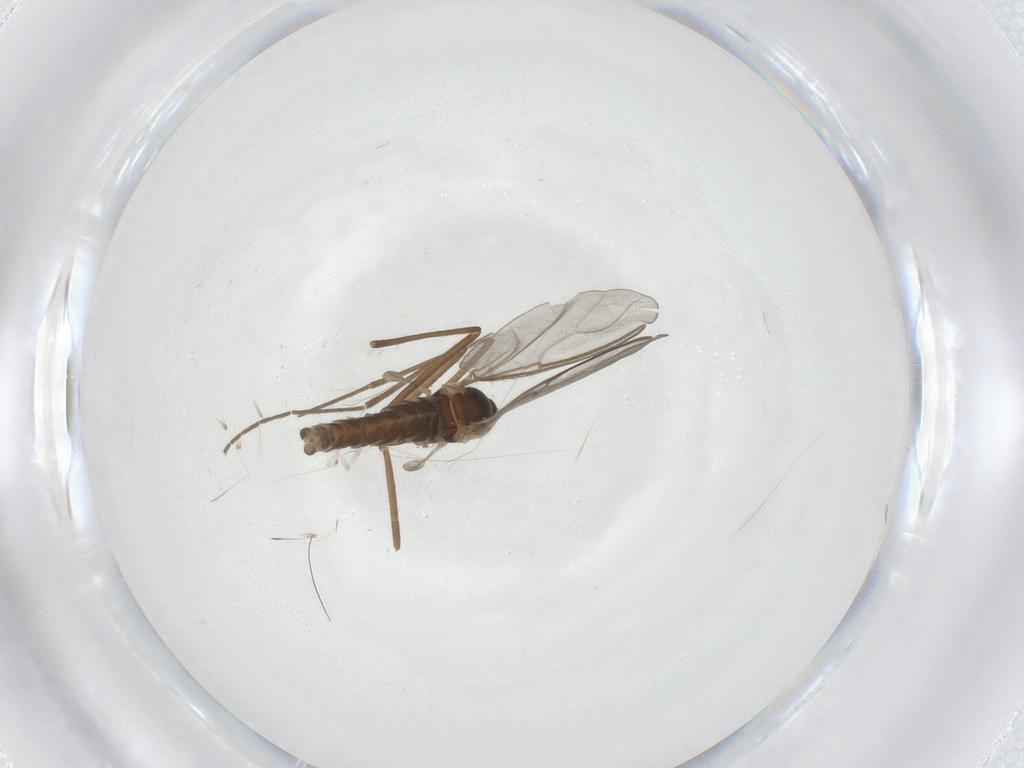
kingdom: Animalia
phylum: Arthropoda
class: Insecta
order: Diptera
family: Cecidomyiidae
